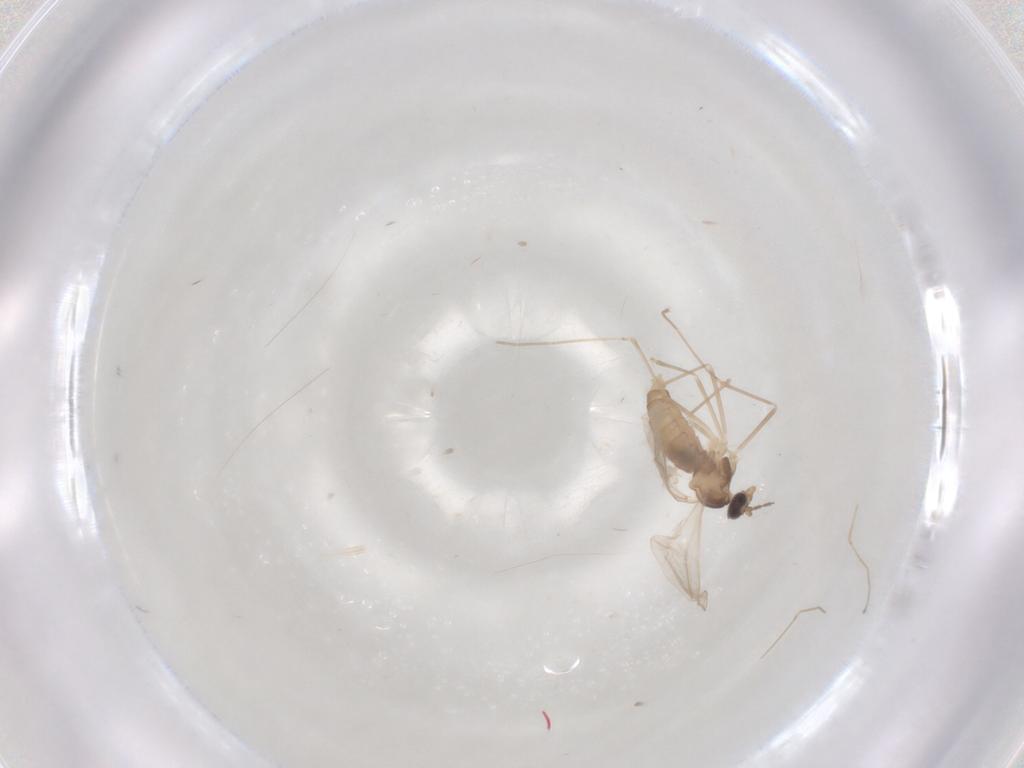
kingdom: Animalia
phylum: Arthropoda
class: Insecta
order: Diptera
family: Cecidomyiidae
